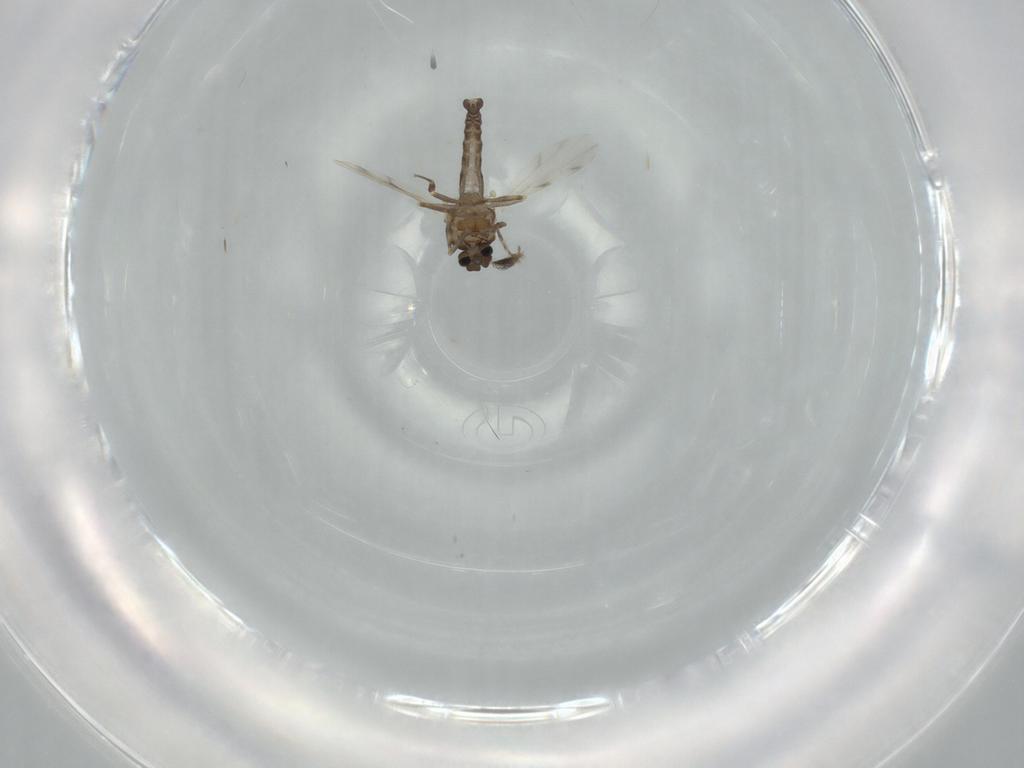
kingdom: Animalia
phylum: Arthropoda
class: Insecta
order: Diptera
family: Ceratopogonidae
